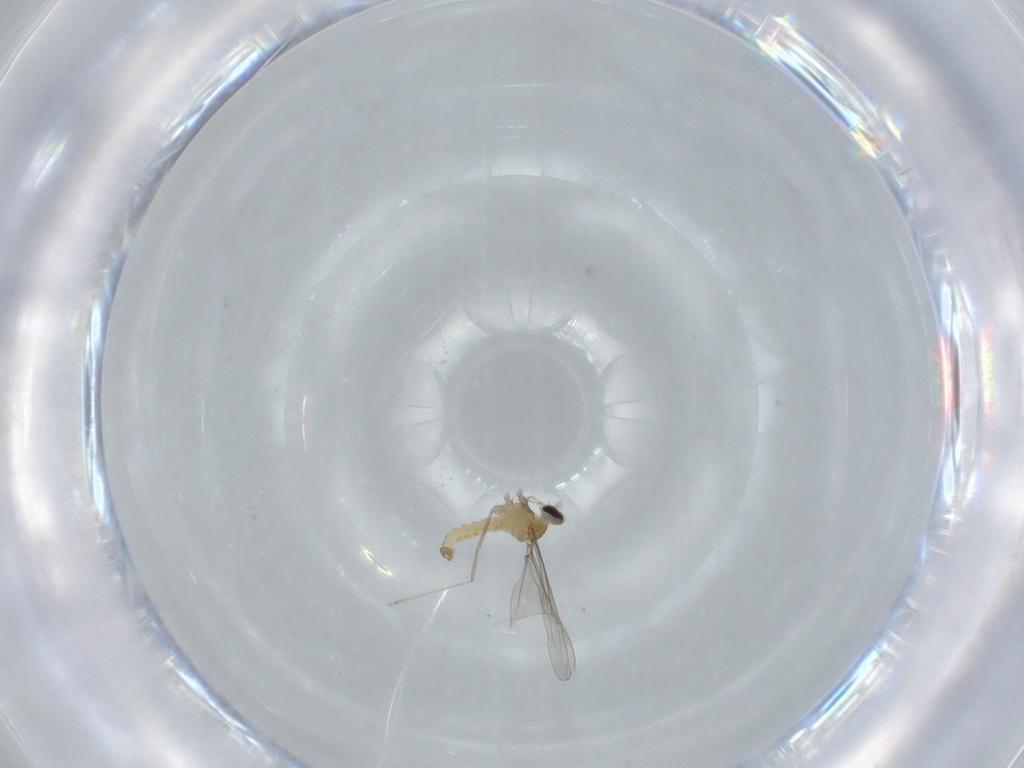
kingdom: Animalia
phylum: Arthropoda
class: Insecta
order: Diptera
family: Cecidomyiidae
